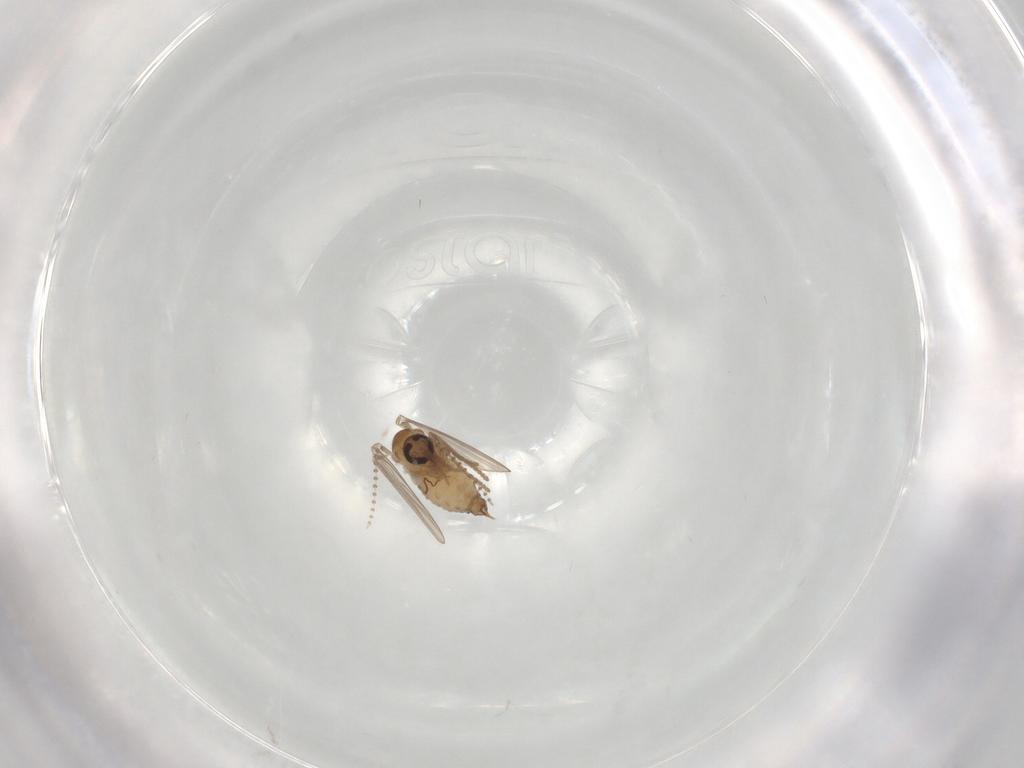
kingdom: Animalia
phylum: Arthropoda
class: Insecta
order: Diptera
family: Psychodidae
